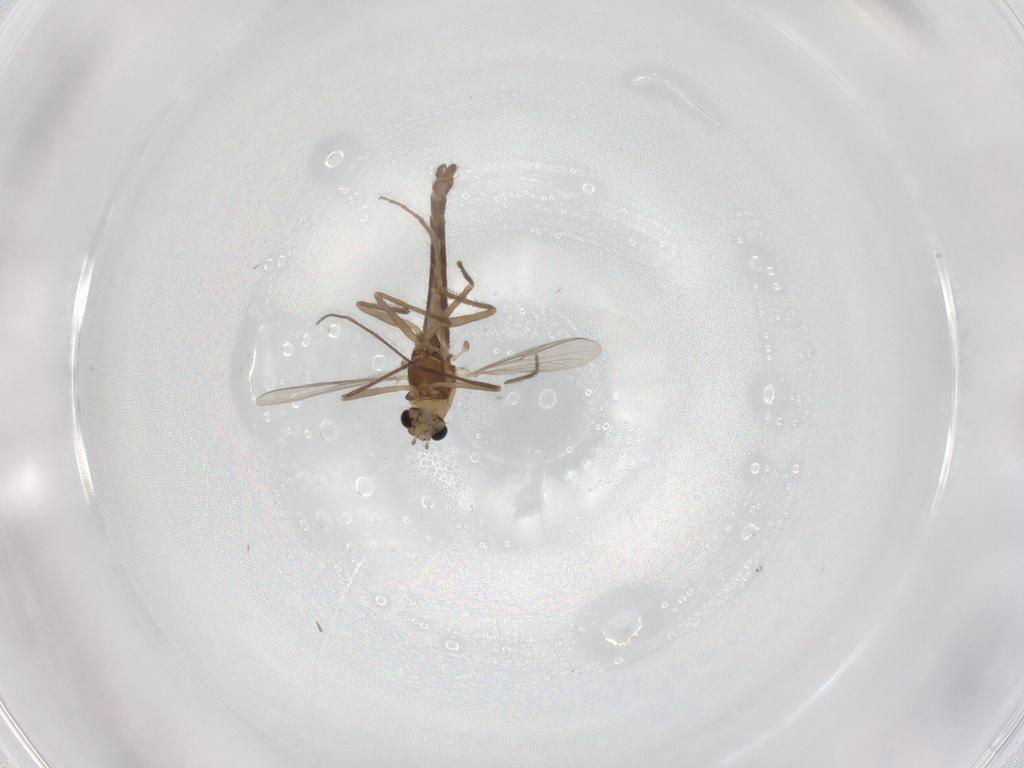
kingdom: Animalia
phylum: Arthropoda
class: Insecta
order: Diptera
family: Chironomidae
